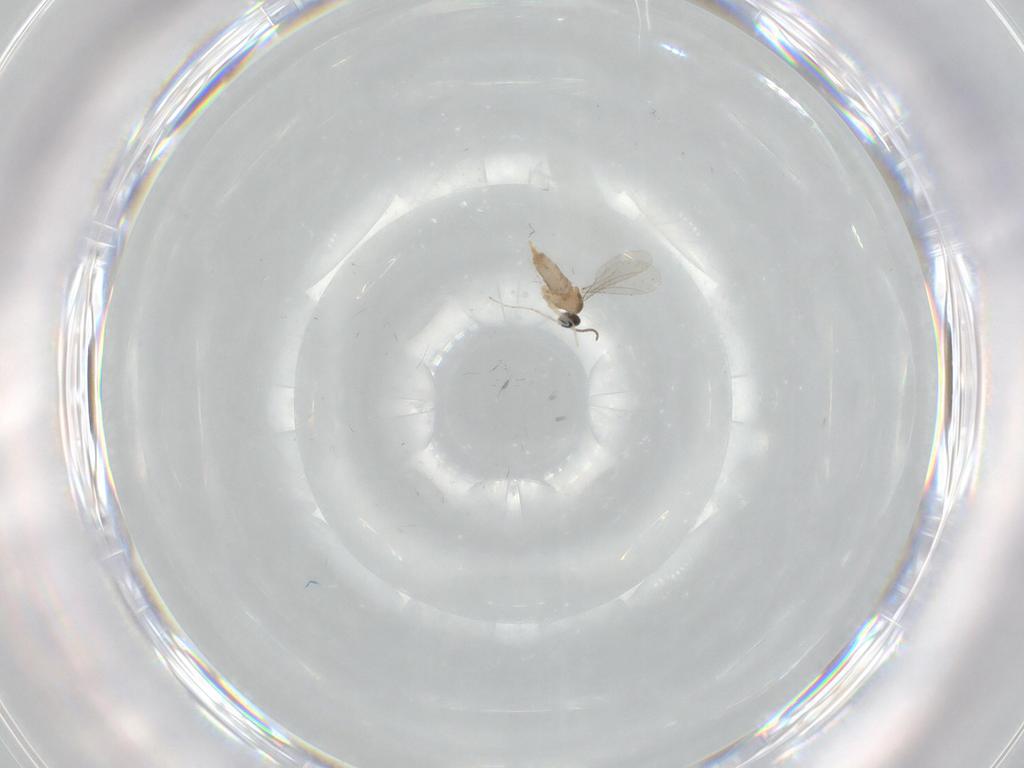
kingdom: Animalia
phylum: Arthropoda
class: Insecta
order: Diptera
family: Cecidomyiidae
